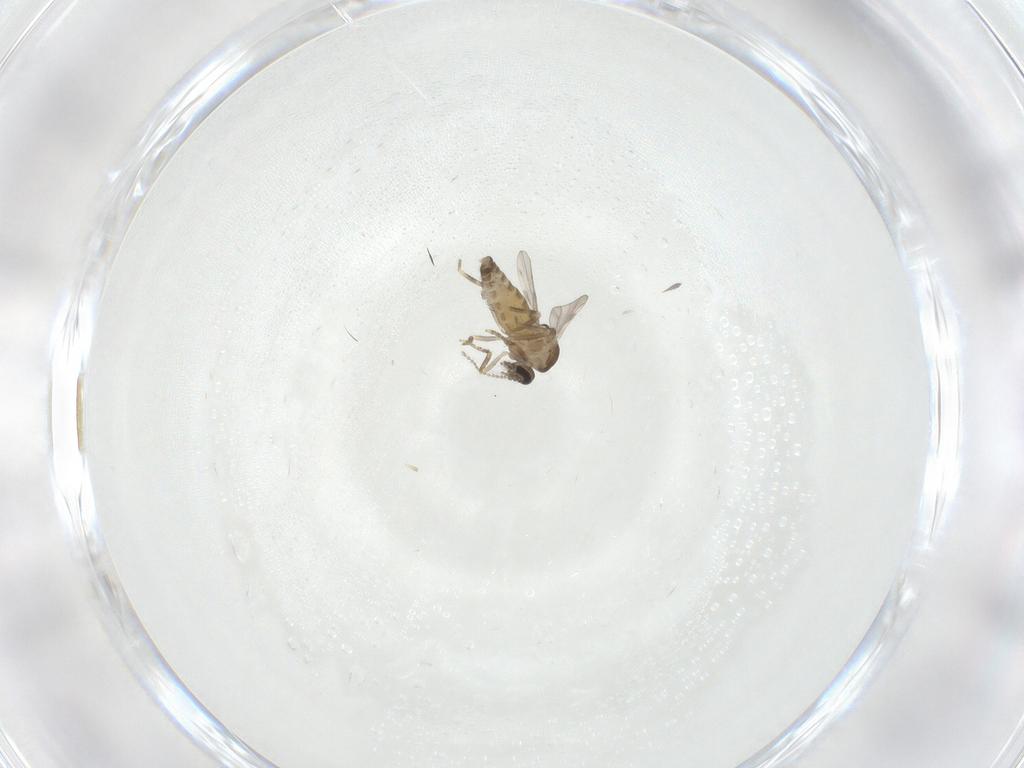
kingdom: Animalia
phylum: Arthropoda
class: Insecta
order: Diptera
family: Ceratopogonidae
